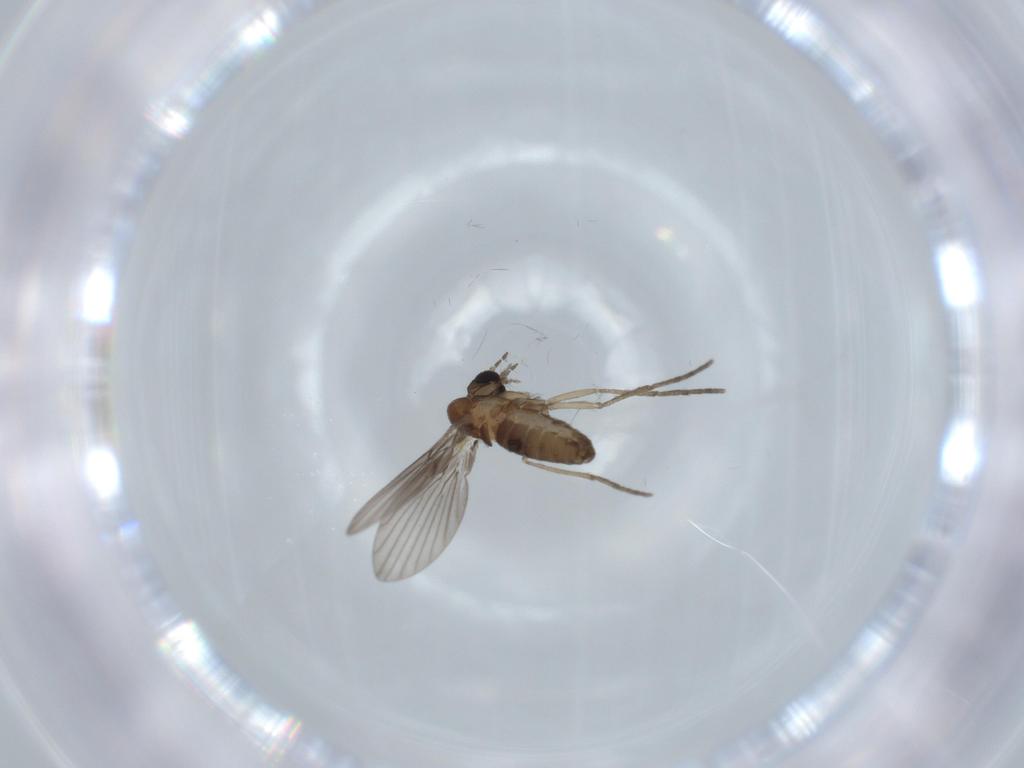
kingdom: Animalia
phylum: Arthropoda
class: Insecta
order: Diptera
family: Psychodidae
